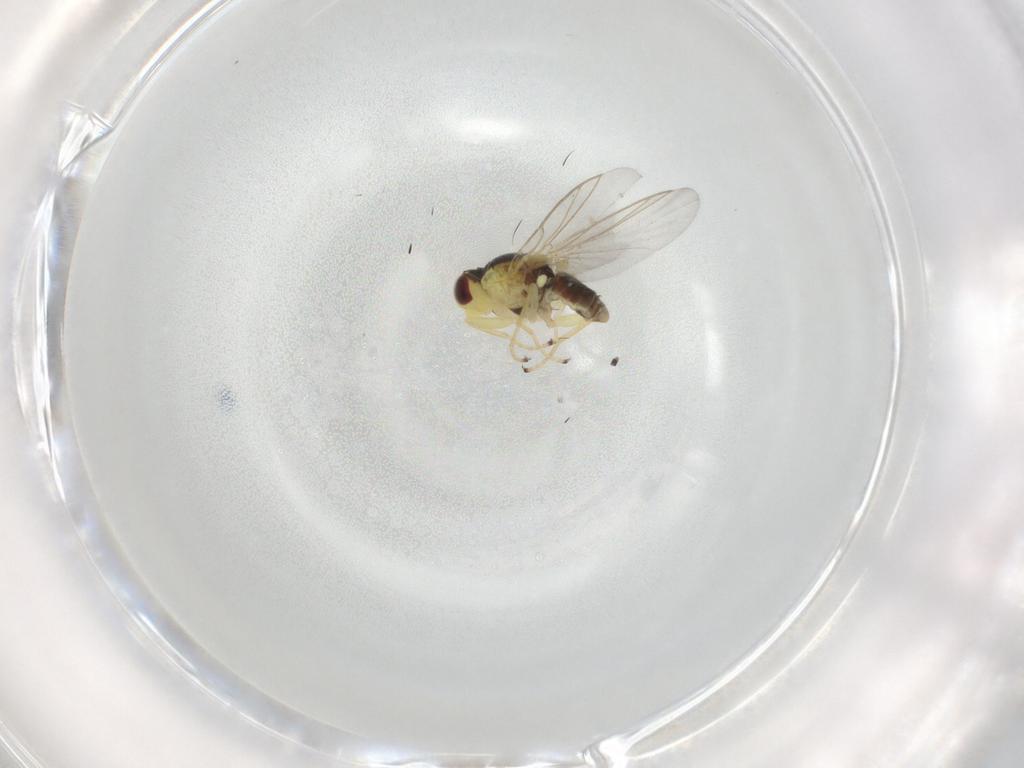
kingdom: Animalia
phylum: Arthropoda
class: Insecta
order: Diptera
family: Agromyzidae
